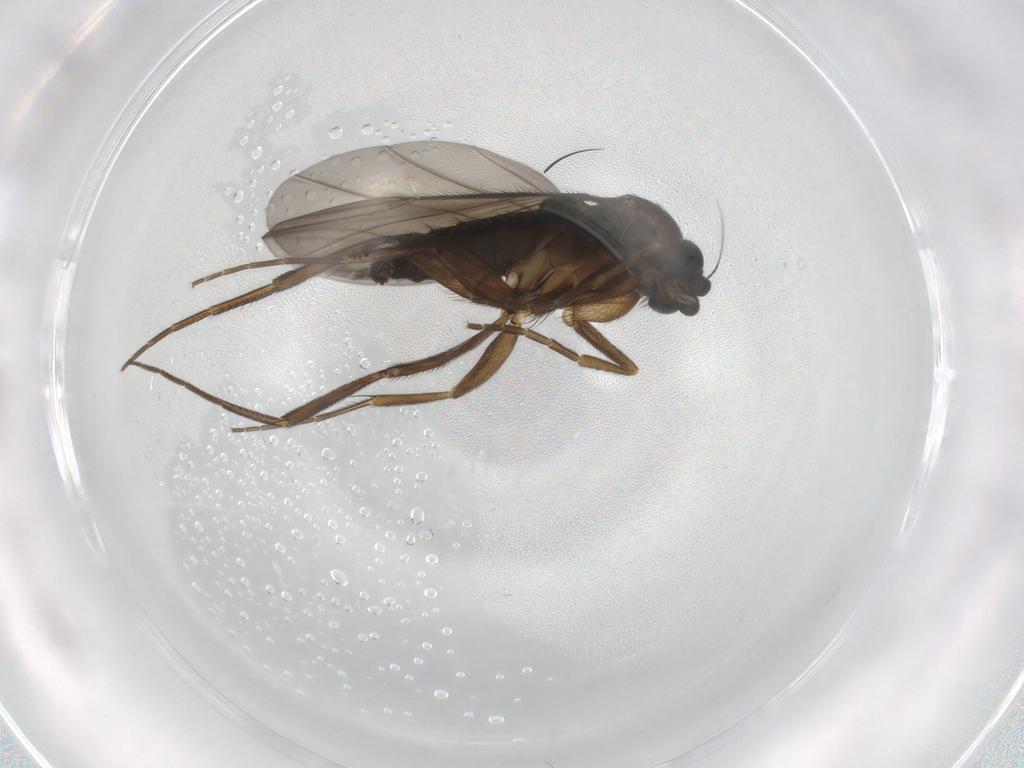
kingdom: Animalia
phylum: Arthropoda
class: Insecta
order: Diptera
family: Phoridae
